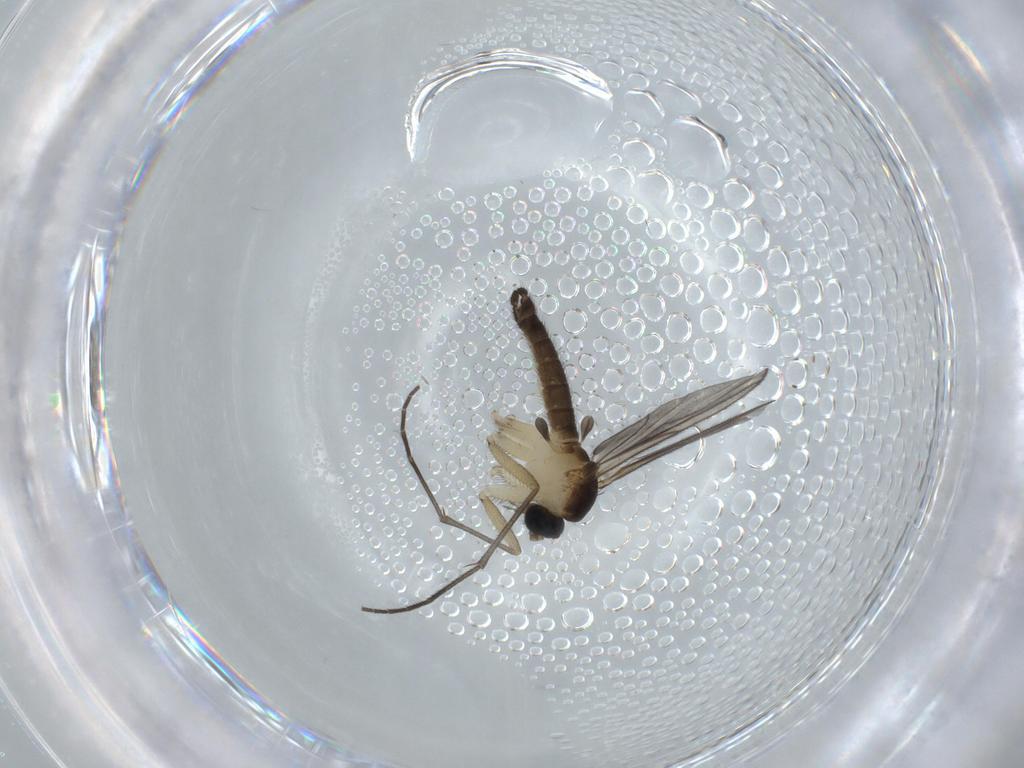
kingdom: Animalia
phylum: Arthropoda
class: Insecta
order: Diptera
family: Sciaridae
